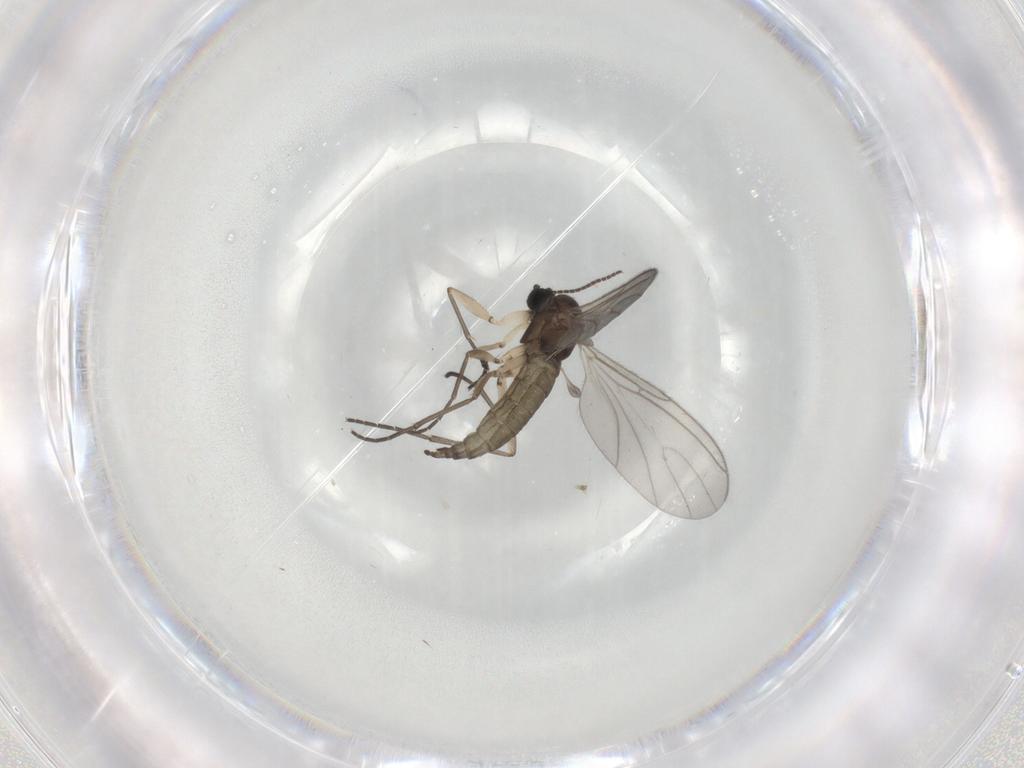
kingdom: Animalia
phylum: Arthropoda
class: Insecta
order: Diptera
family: Sciaridae
